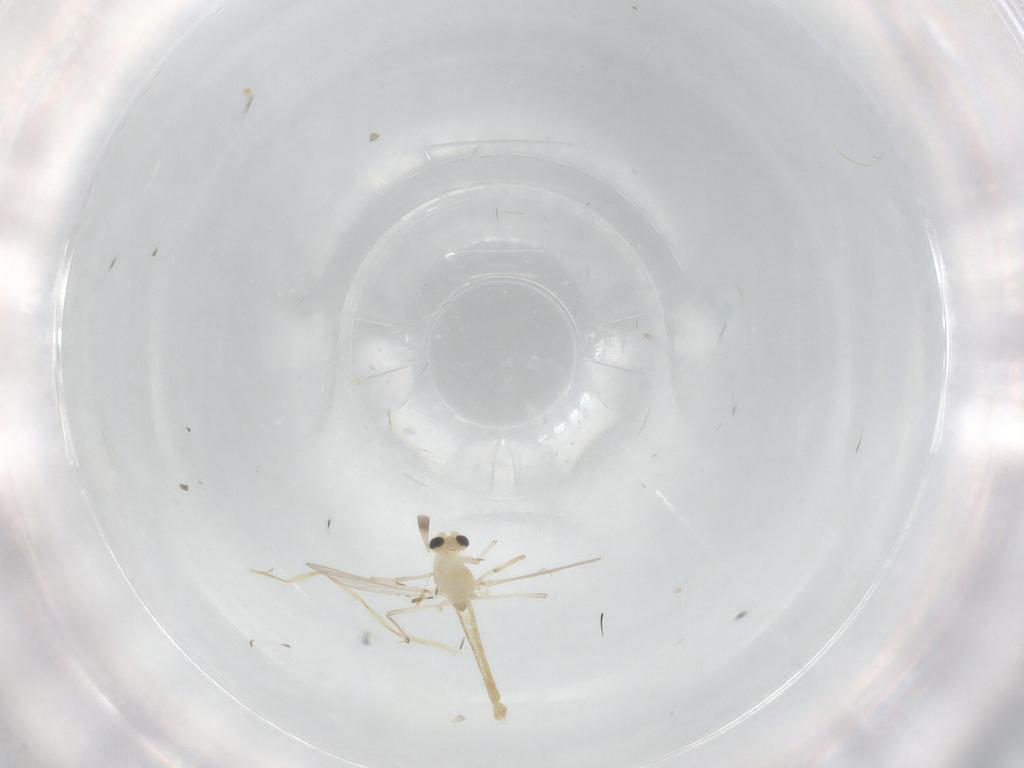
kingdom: Animalia
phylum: Arthropoda
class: Insecta
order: Diptera
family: Chironomidae
